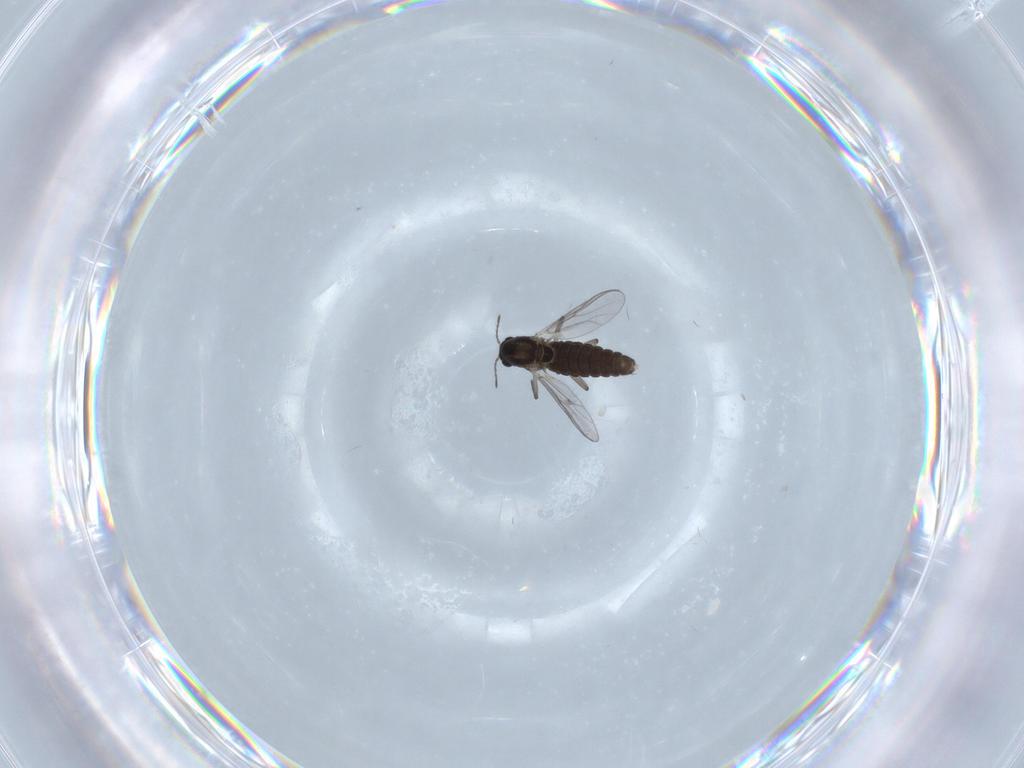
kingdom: Animalia
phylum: Arthropoda
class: Insecta
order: Diptera
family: Chironomidae
